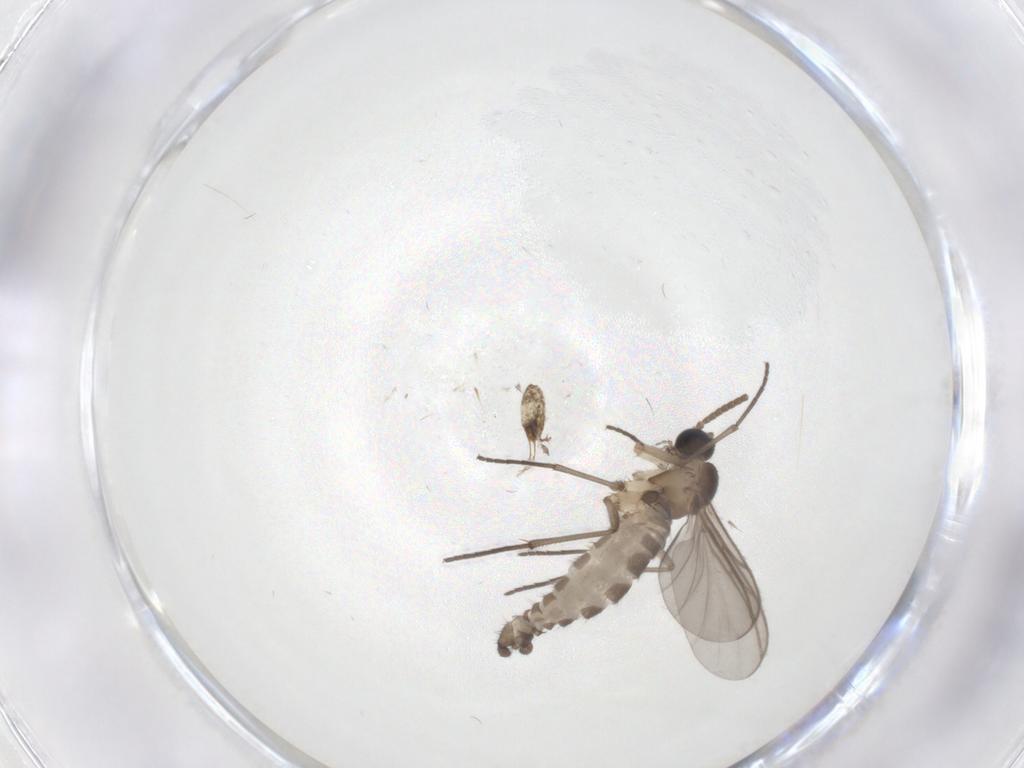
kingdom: Animalia
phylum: Arthropoda
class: Insecta
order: Diptera
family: Simuliidae
